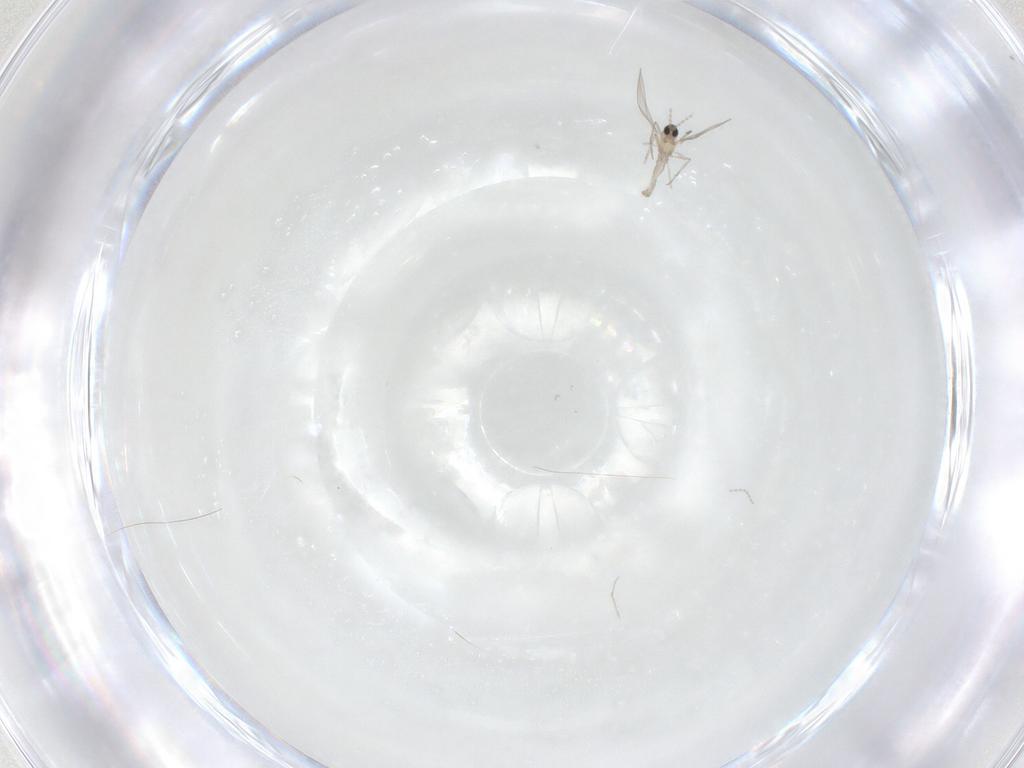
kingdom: Animalia
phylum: Arthropoda
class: Insecta
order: Diptera
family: Cecidomyiidae
